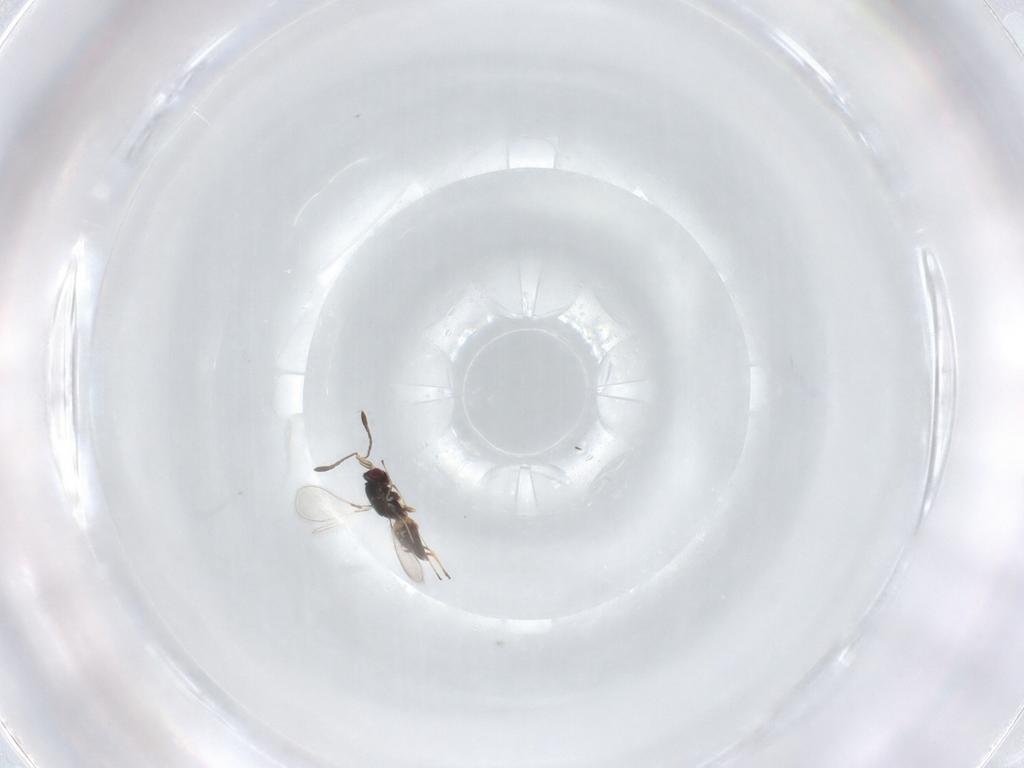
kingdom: Animalia
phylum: Arthropoda
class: Insecta
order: Hymenoptera
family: Mymaridae
